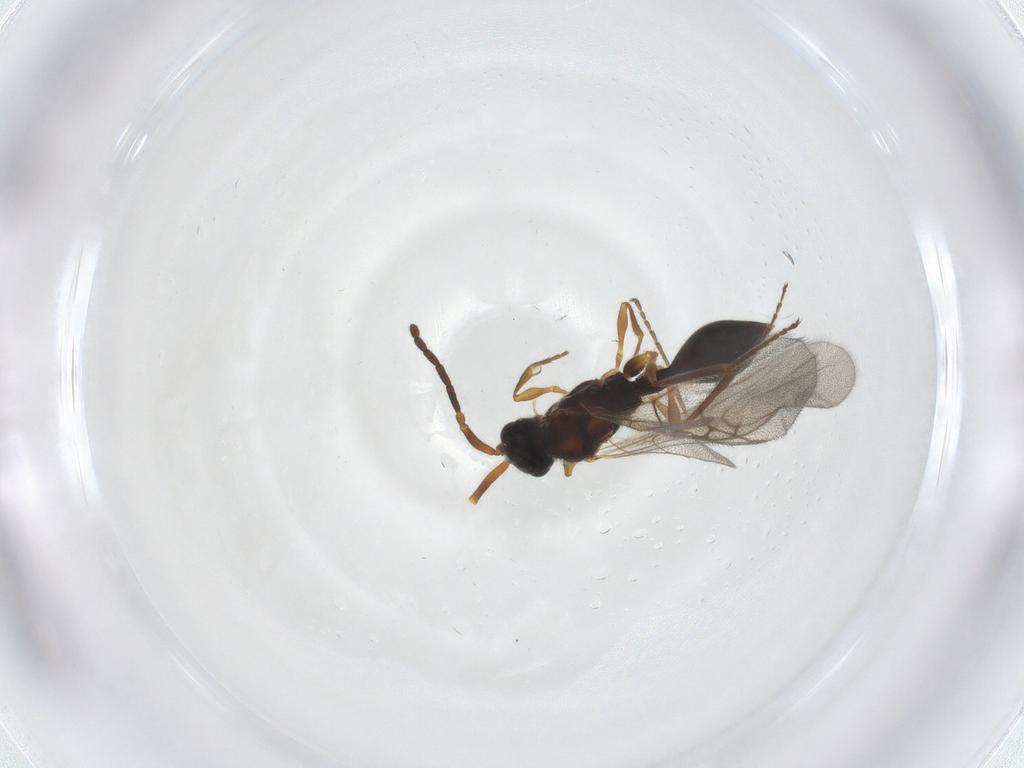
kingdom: Animalia
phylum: Arthropoda
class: Insecta
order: Hymenoptera
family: Diapriidae
